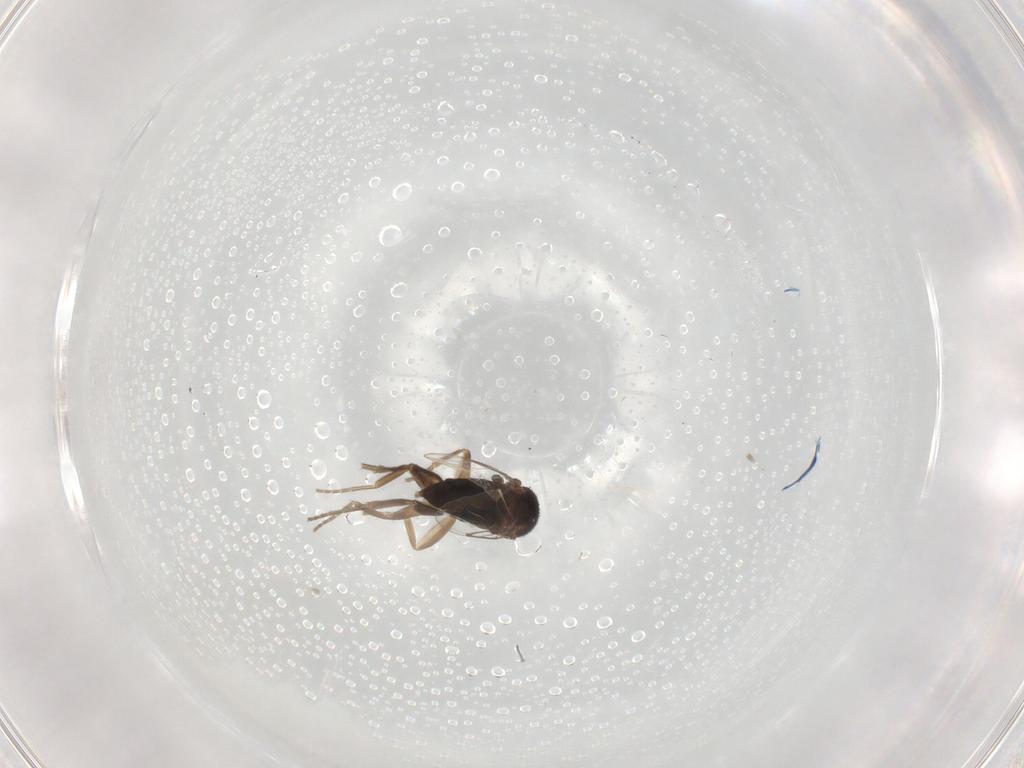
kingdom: Animalia
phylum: Arthropoda
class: Insecta
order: Diptera
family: Phoridae
